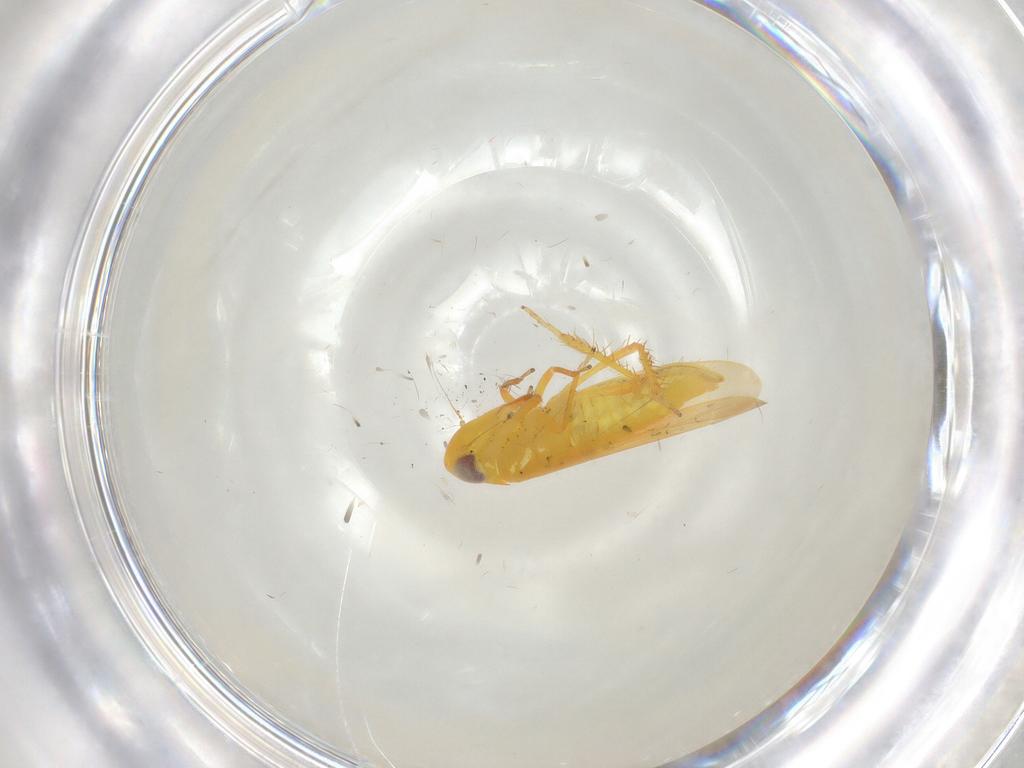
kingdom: Animalia
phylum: Arthropoda
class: Insecta
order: Hemiptera
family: Cicadellidae
